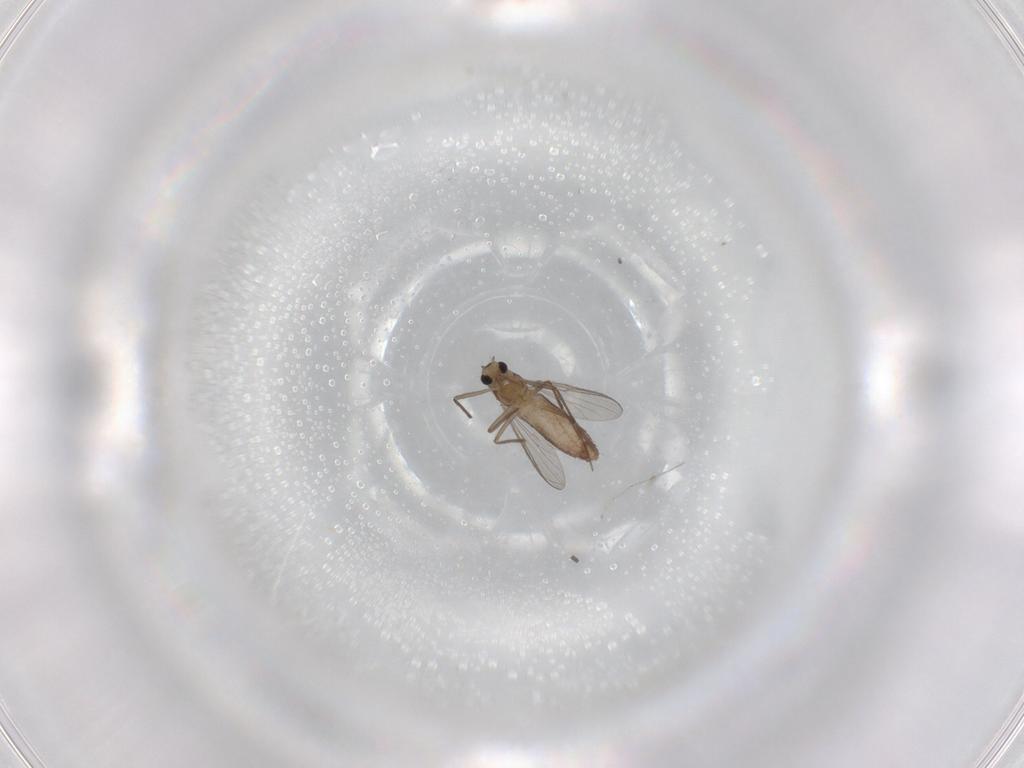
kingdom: Animalia
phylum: Arthropoda
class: Insecta
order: Diptera
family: Chironomidae
